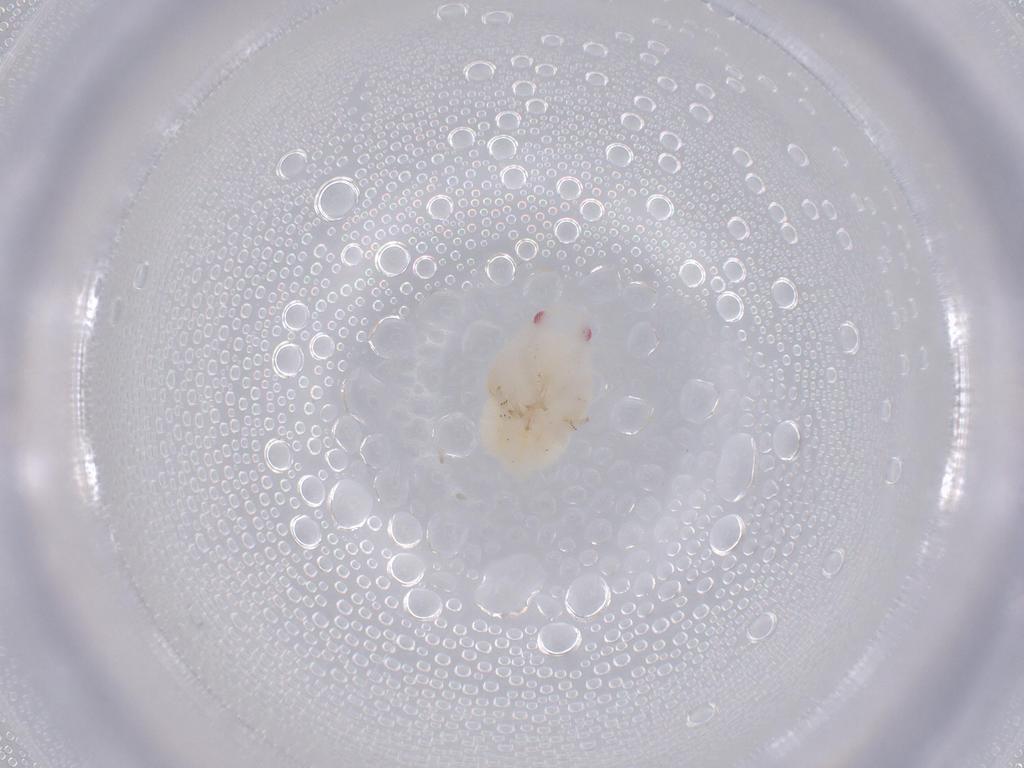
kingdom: Animalia
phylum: Arthropoda
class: Insecta
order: Hemiptera
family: Flatidae
